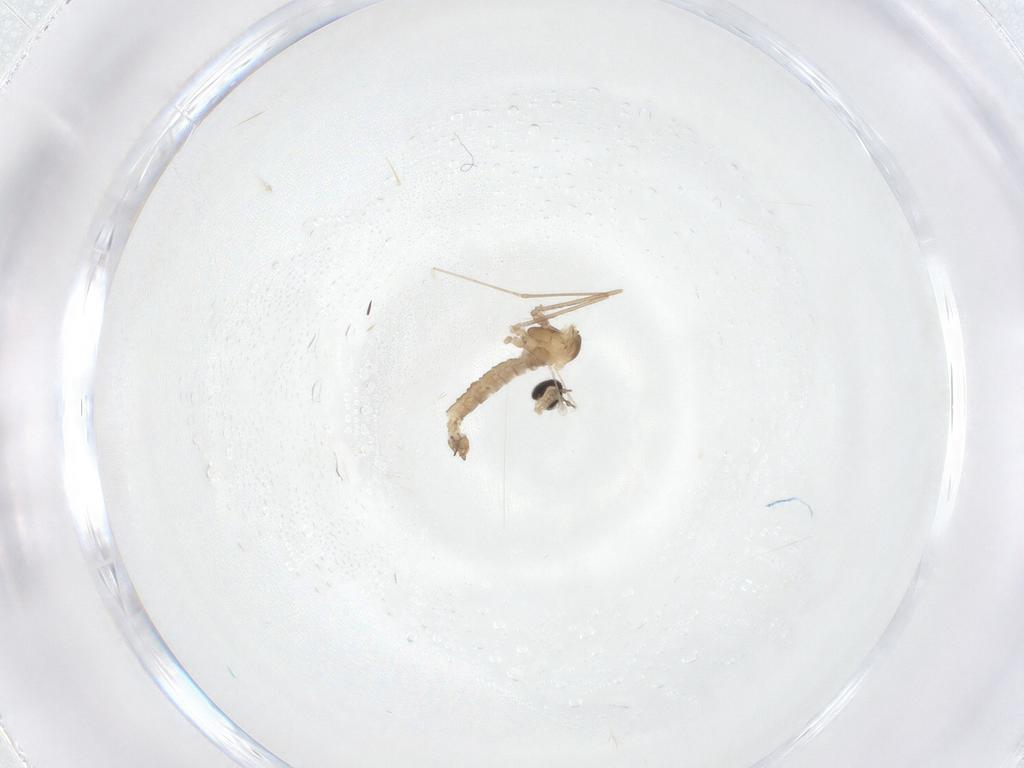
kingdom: Animalia
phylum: Arthropoda
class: Insecta
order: Diptera
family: Cecidomyiidae
